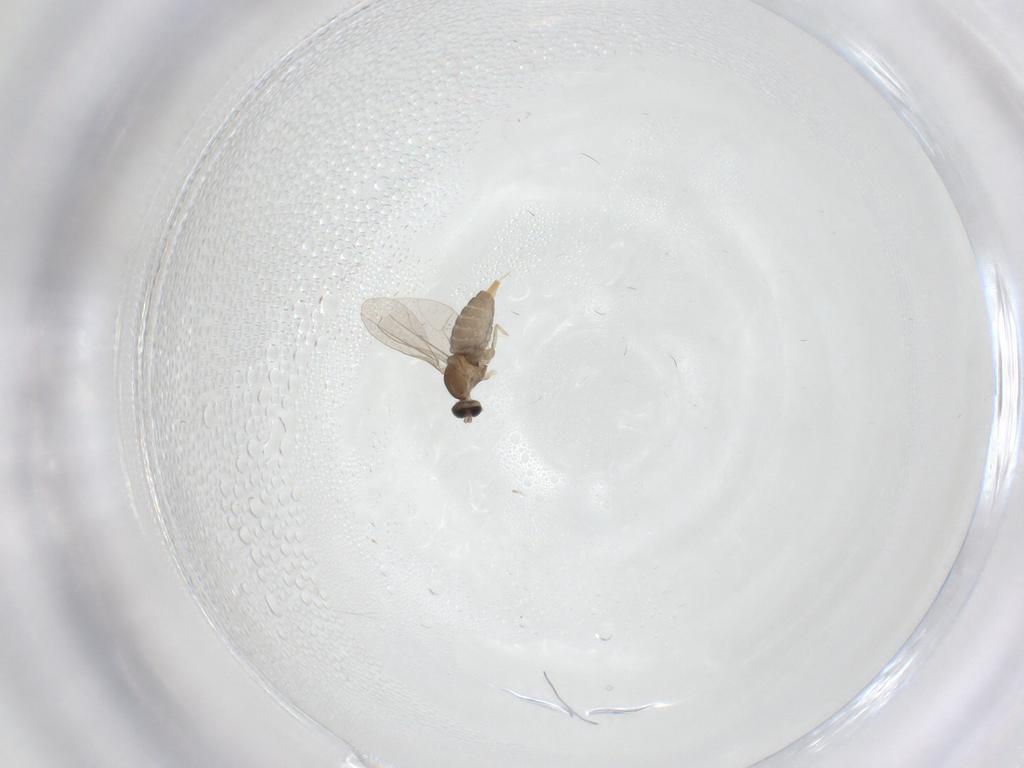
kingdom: Animalia
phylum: Arthropoda
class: Insecta
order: Diptera
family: Cecidomyiidae
